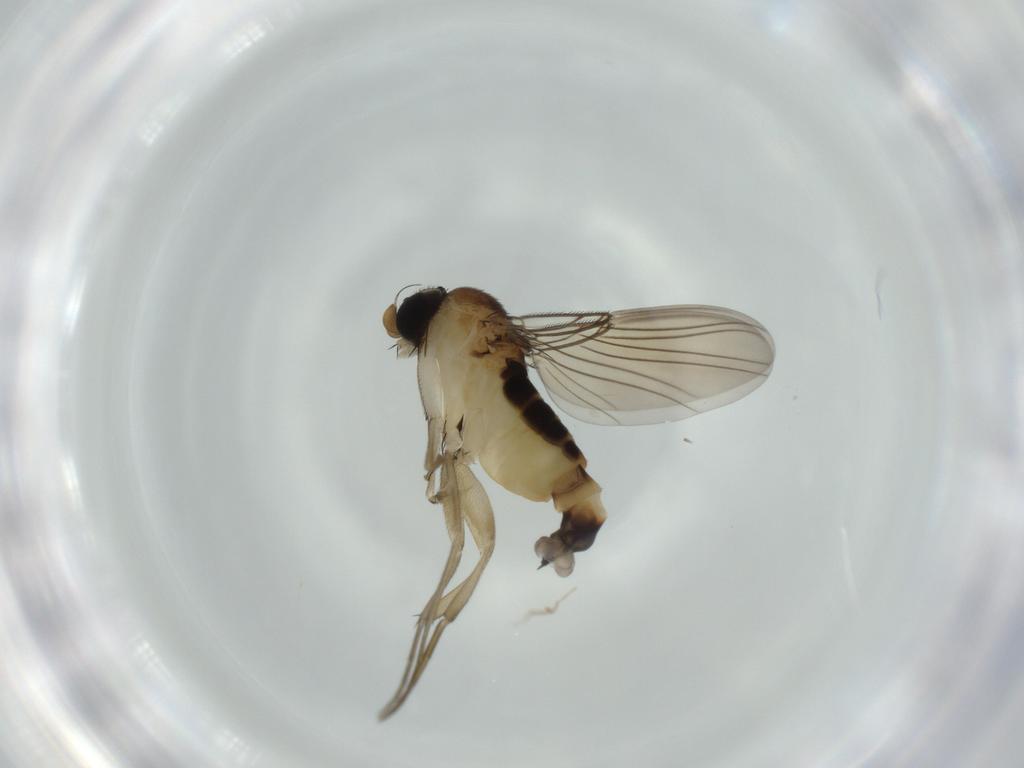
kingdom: Animalia
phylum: Arthropoda
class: Insecta
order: Diptera
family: Phoridae
